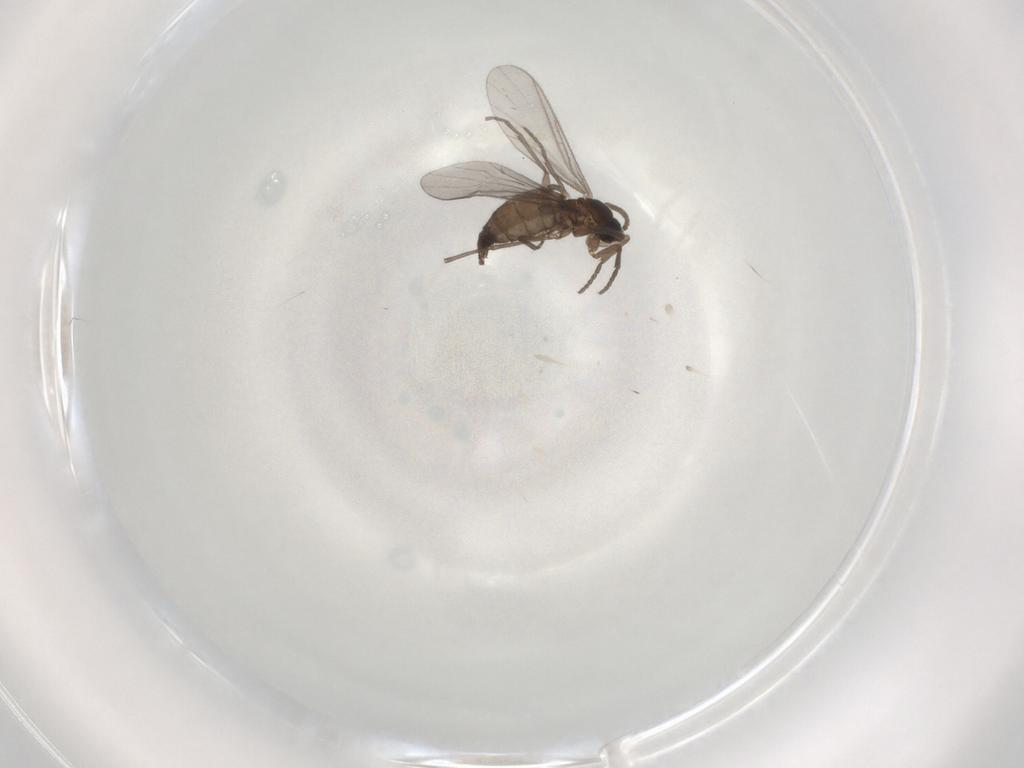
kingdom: Animalia
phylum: Arthropoda
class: Insecta
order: Diptera
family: Sciaridae
